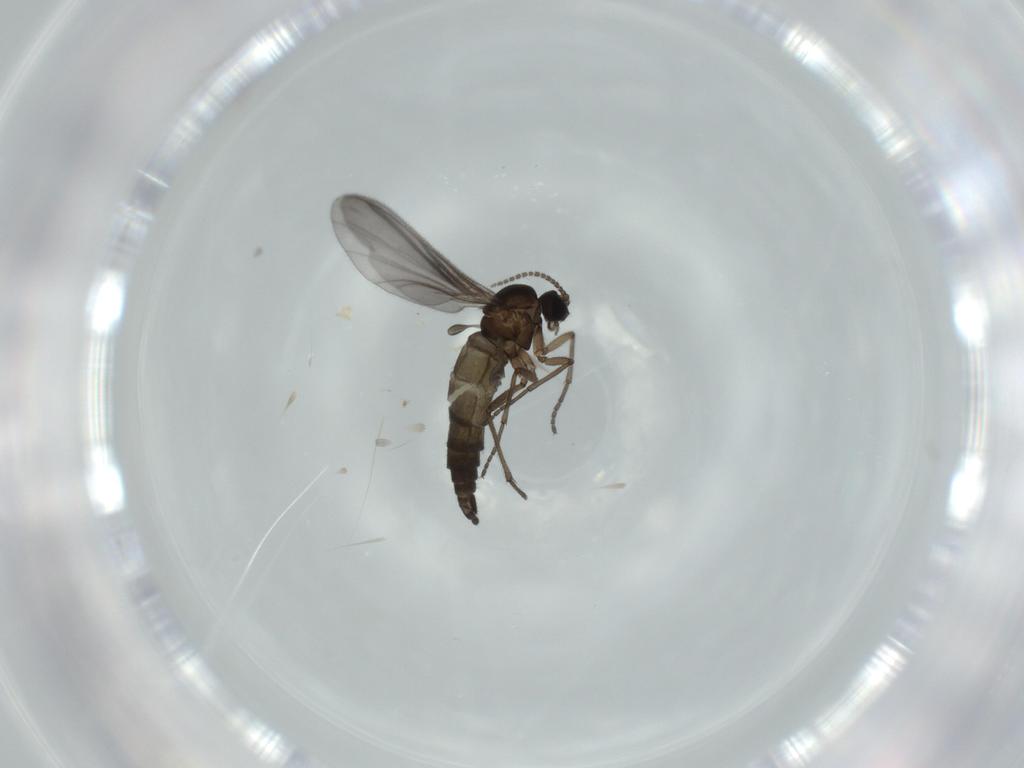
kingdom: Animalia
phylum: Arthropoda
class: Insecta
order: Diptera
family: Sciaridae
